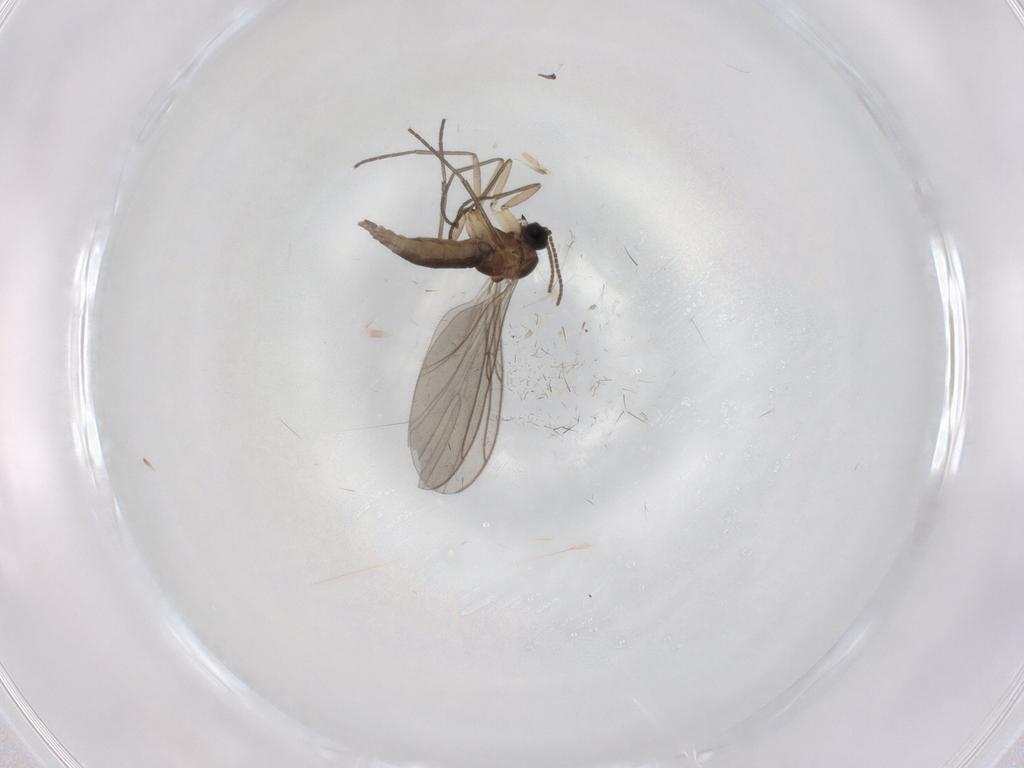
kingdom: Animalia
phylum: Arthropoda
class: Insecta
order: Diptera
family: Sciaridae
